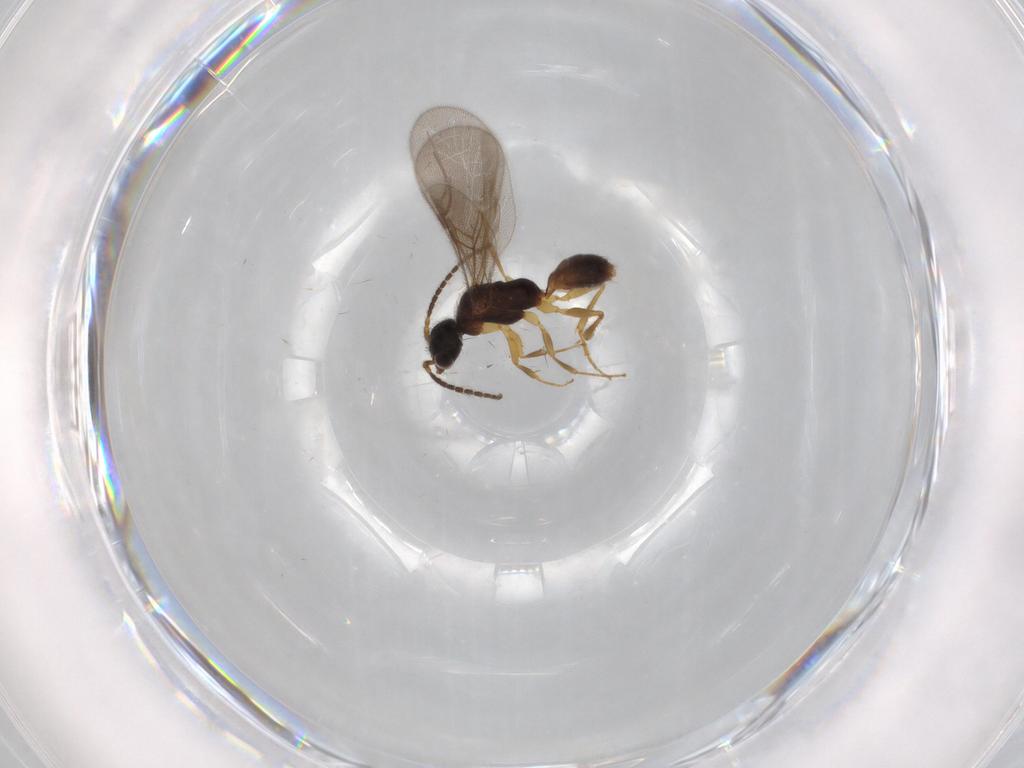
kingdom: Animalia
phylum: Arthropoda
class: Insecta
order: Hymenoptera
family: Bethylidae
